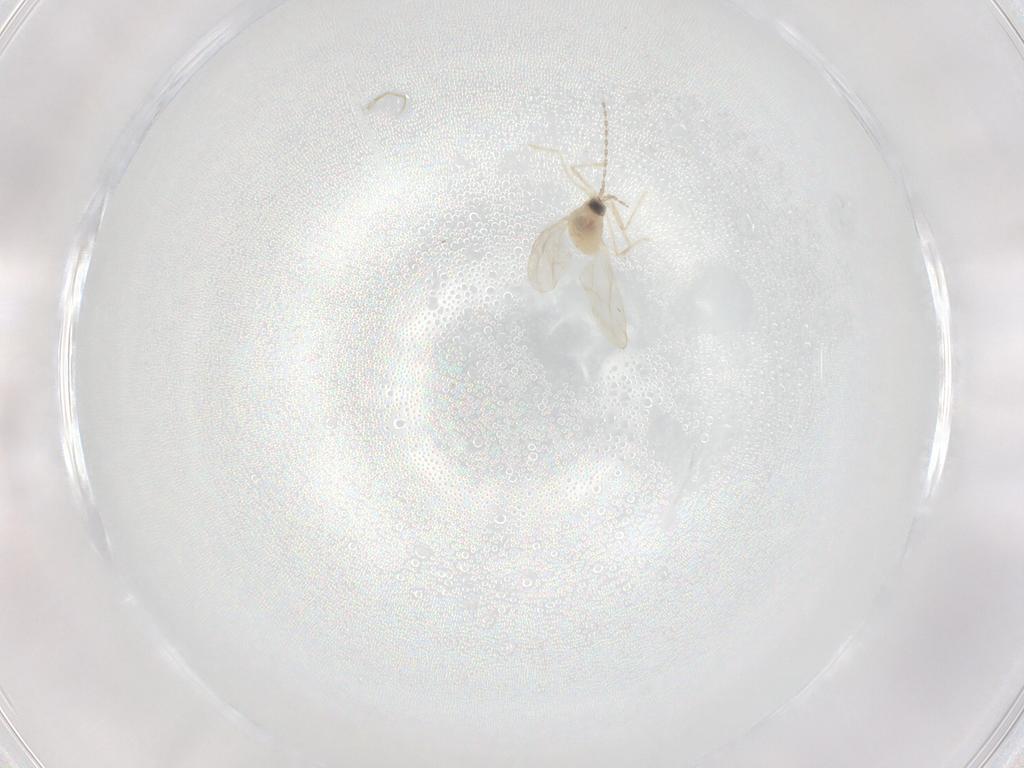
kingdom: Animalia
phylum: Arthropoda
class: Insecta
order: Diptera
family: Chironomidae
